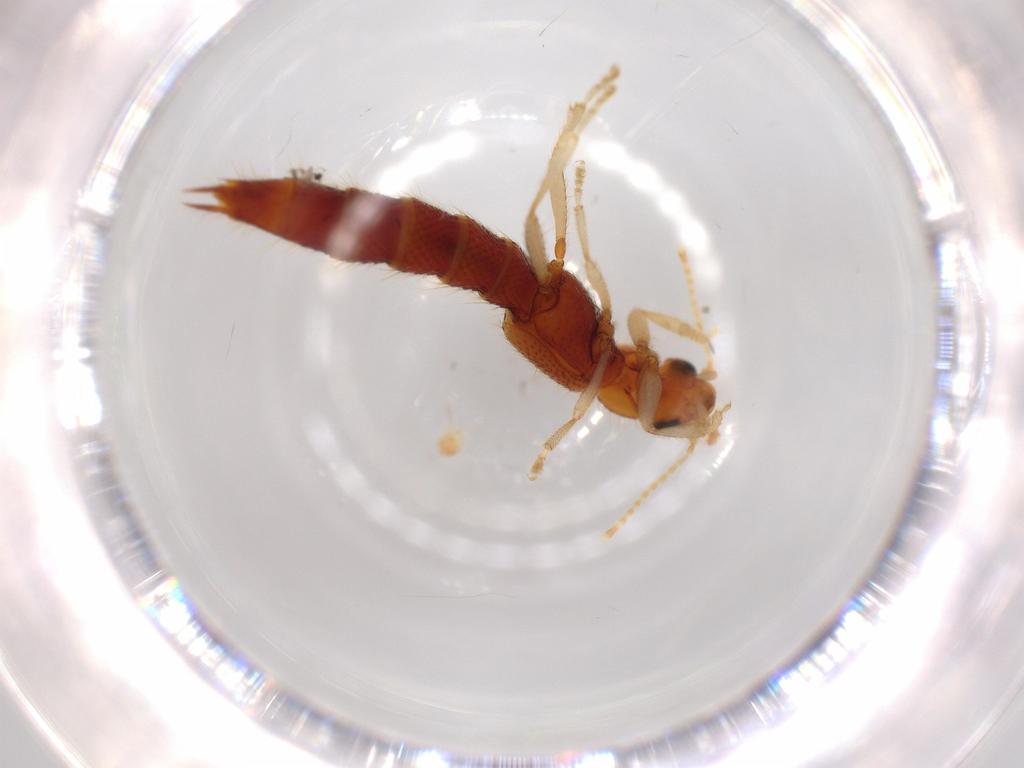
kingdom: Animalia
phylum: Arthropoda
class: Insecta
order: Coleoptera
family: Staphylinidae
